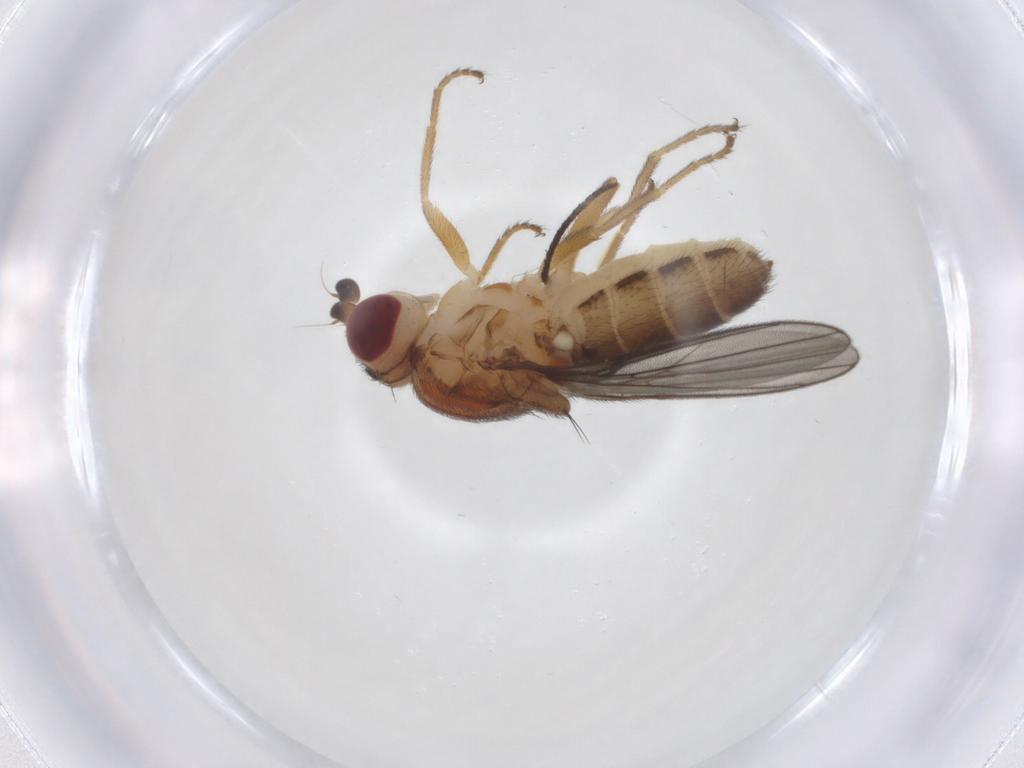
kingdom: Animalia
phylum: Arthropoda
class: Insecta
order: Diptera
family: Chloropidae
